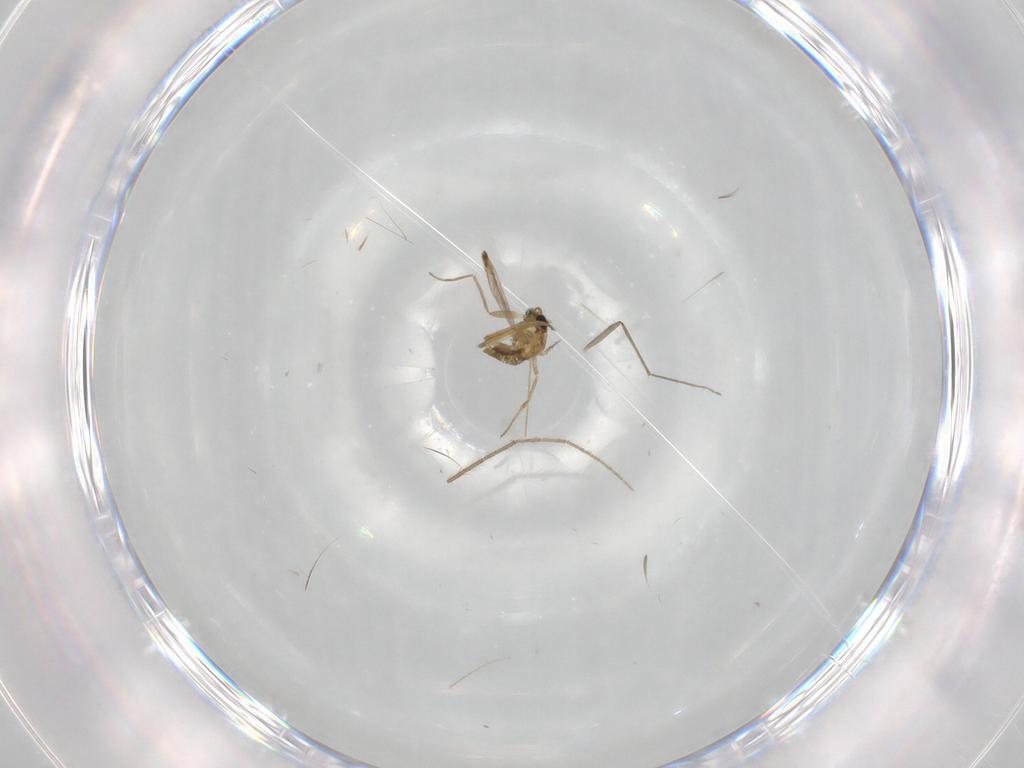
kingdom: Animalia
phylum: Arthropoda
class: Insecta
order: Diptera
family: Chironomidae
